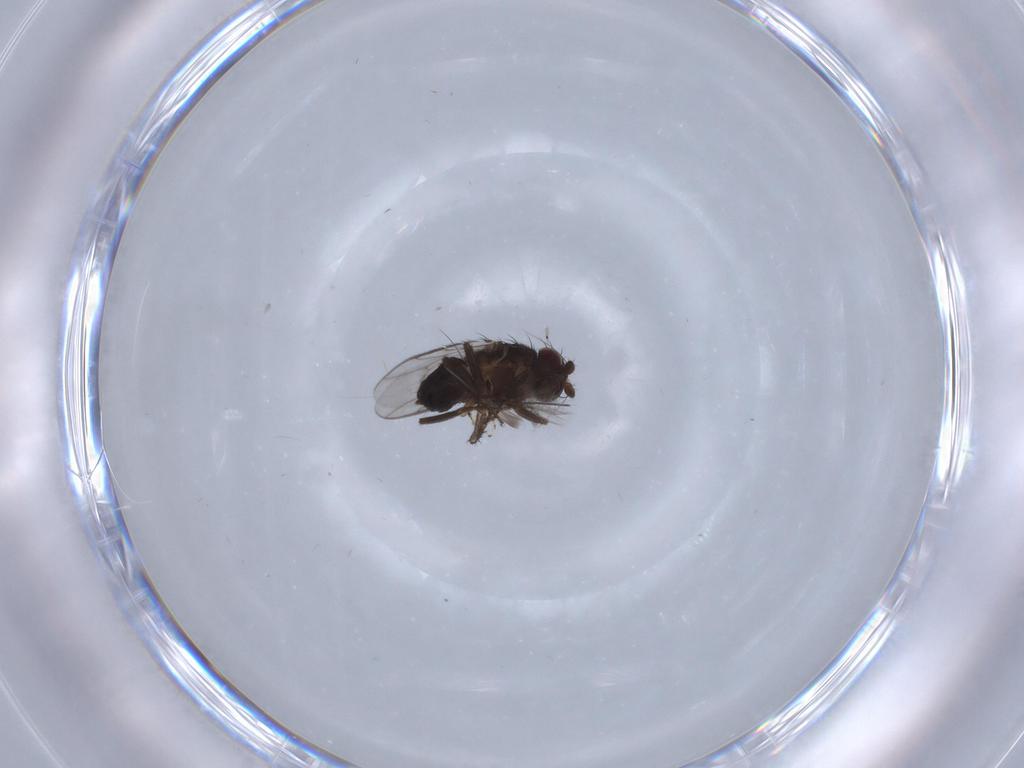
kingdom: Animalia
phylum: Arthropoda
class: Insecta
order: Diptera
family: Sphaeroceridae
